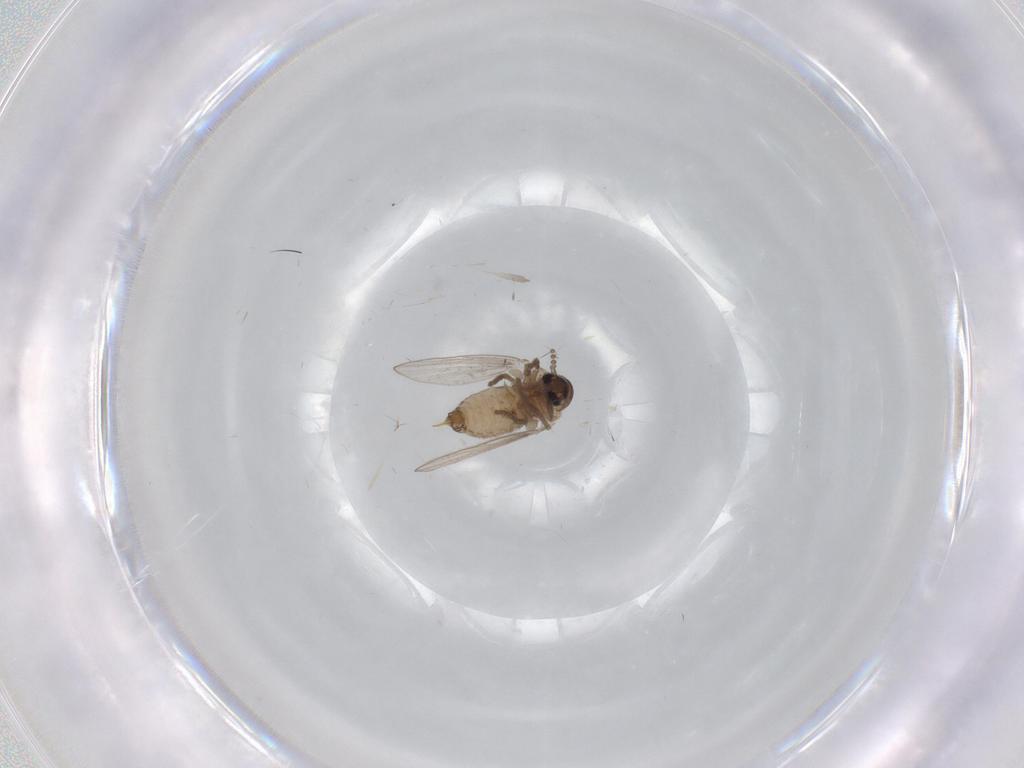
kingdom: Animalia
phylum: Arthropoda
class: Insecta
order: Diptera
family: Psychodidae
